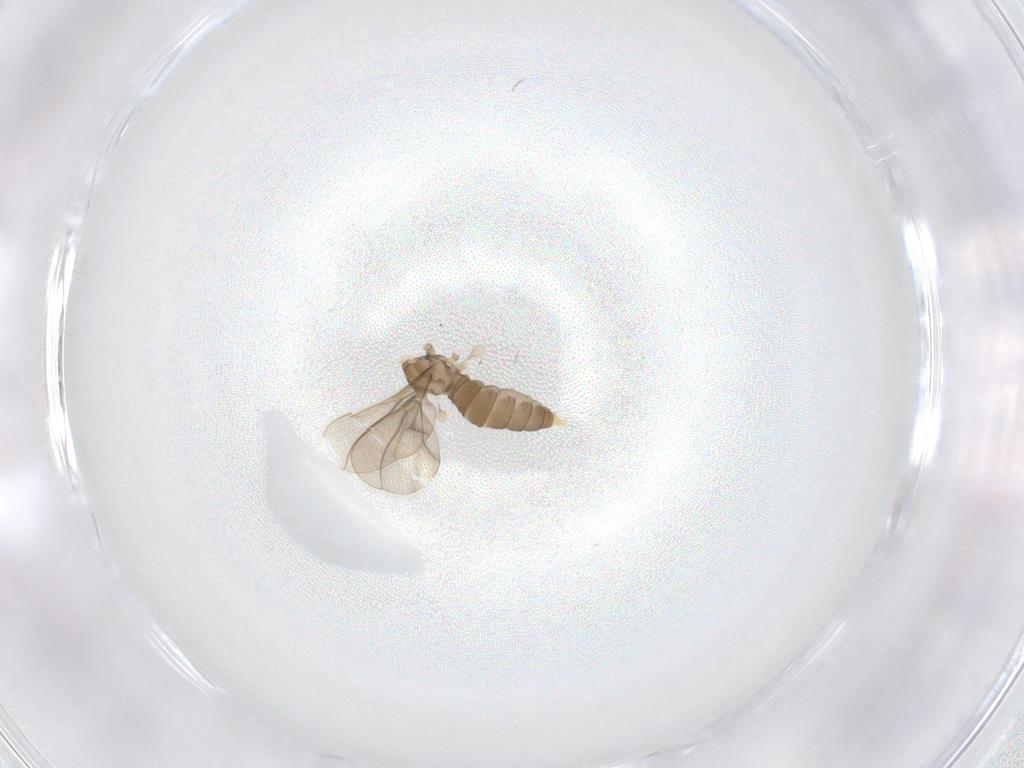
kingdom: Animalia
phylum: Arthropoda
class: Insecta
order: Diptera
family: Cecidomyiidae
